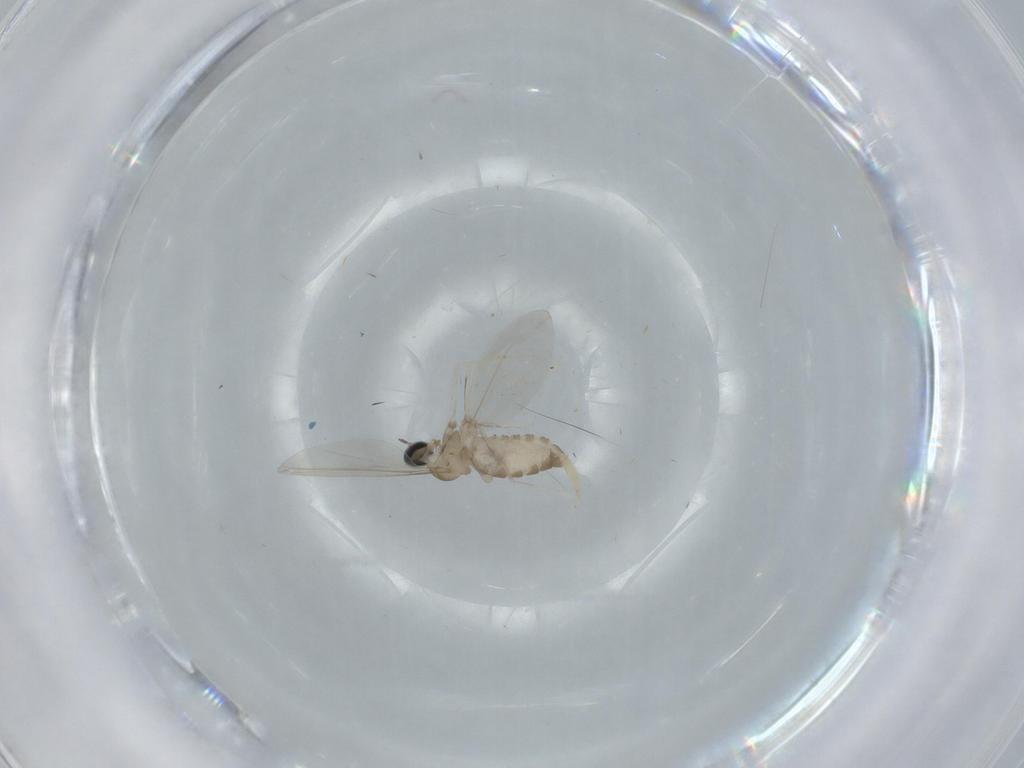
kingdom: Animalia
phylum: Arthropoda
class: Insecta
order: Diptera
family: Cecidomyiidae
